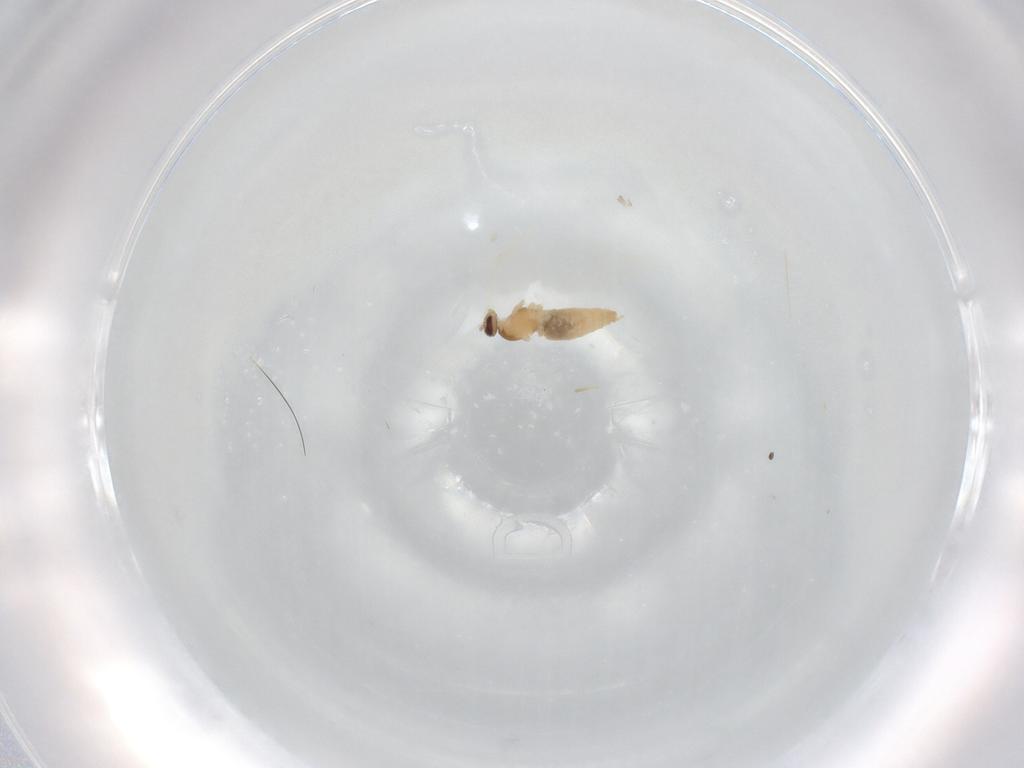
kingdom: Animalia
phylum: Arthropoda
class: Insecta
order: Diptera
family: Cecidomyiidae
